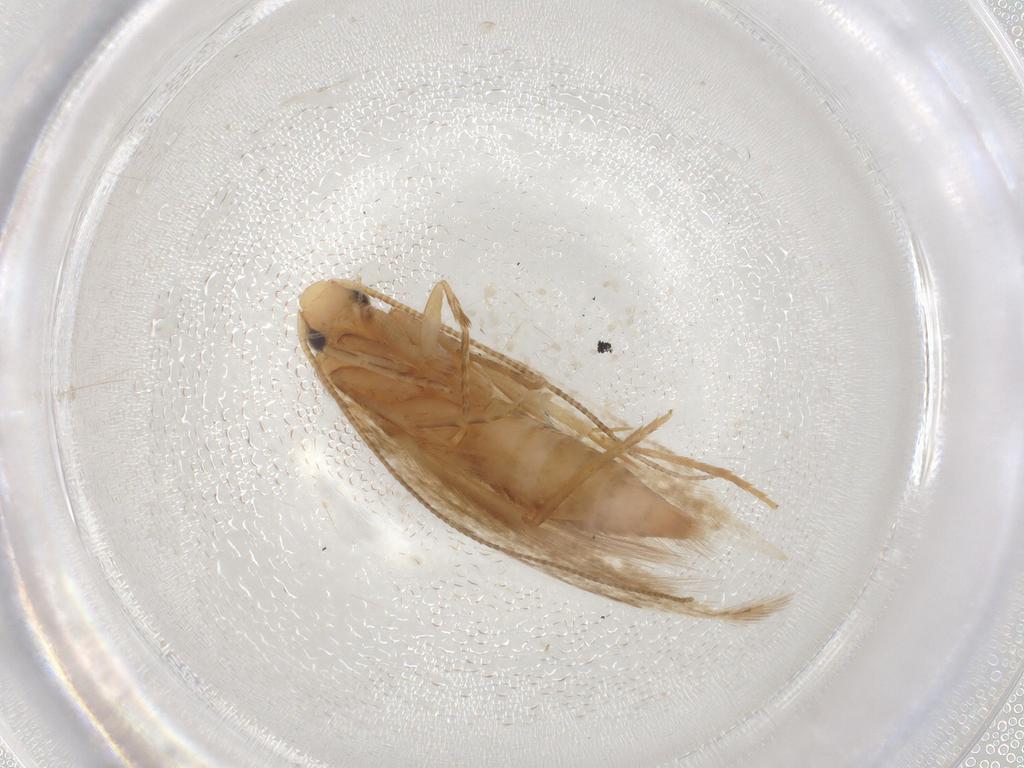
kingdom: Animalia
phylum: Arthropoda
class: Insecta
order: Lepidoptera
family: Tineidae
